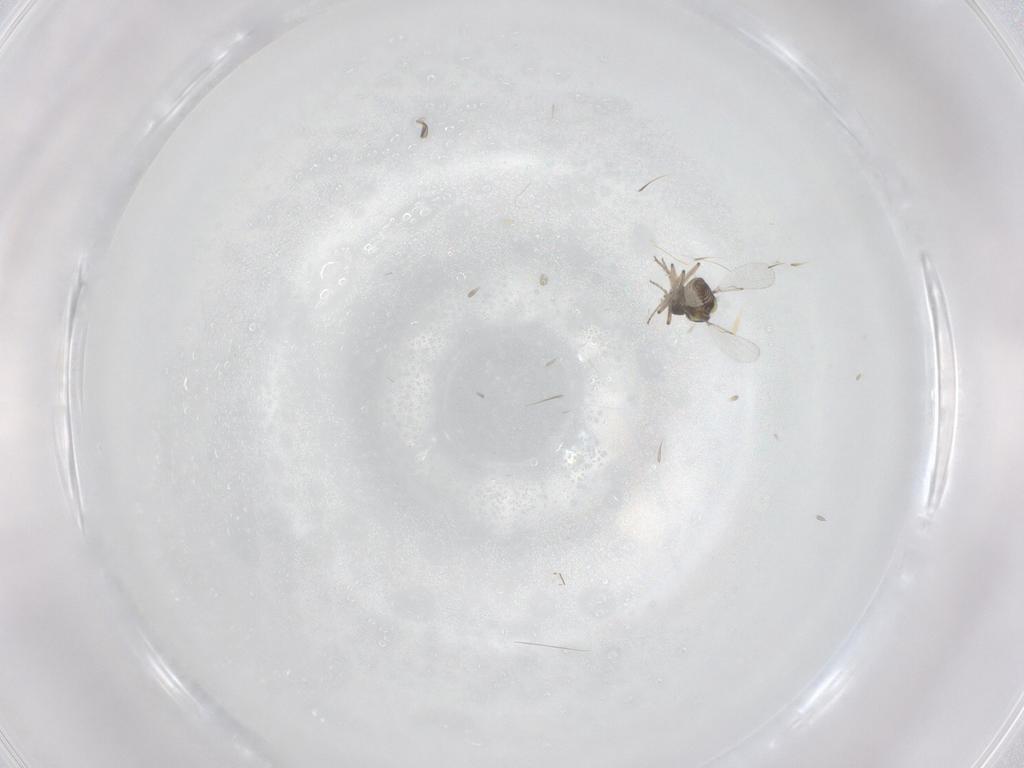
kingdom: Animalia
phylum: Arthropoda
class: Insecta
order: Diptera
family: Ceratopogonidae
